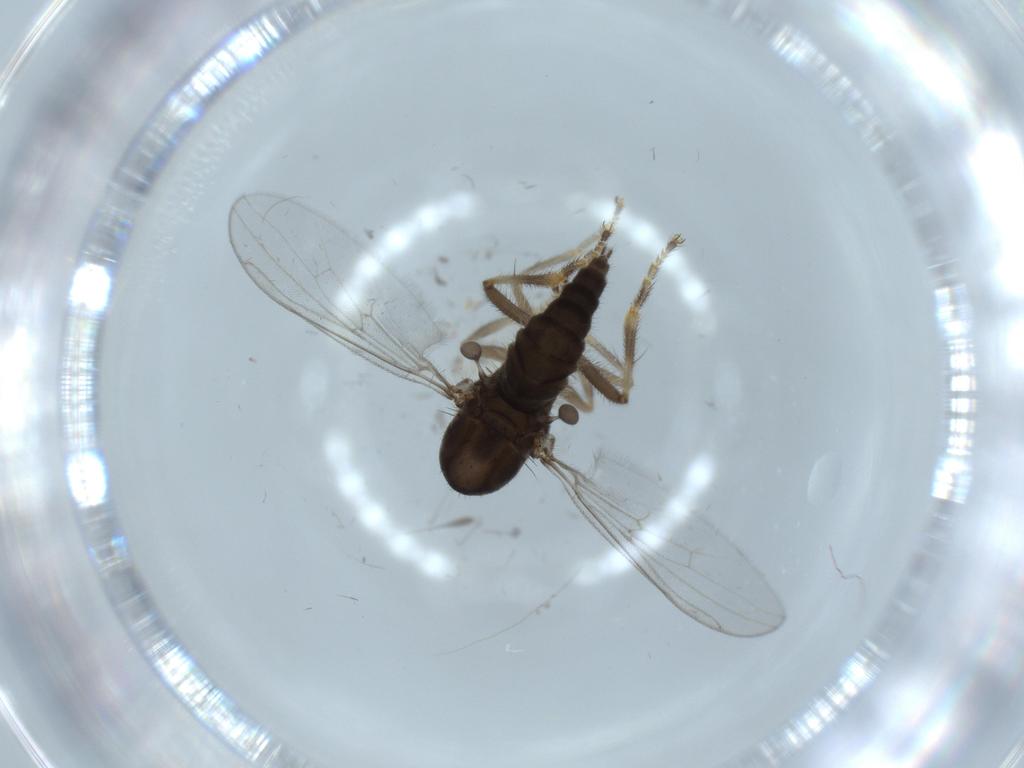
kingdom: Animalia
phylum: Arthropoda
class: Insecta
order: Diptera
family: Hybotidae
